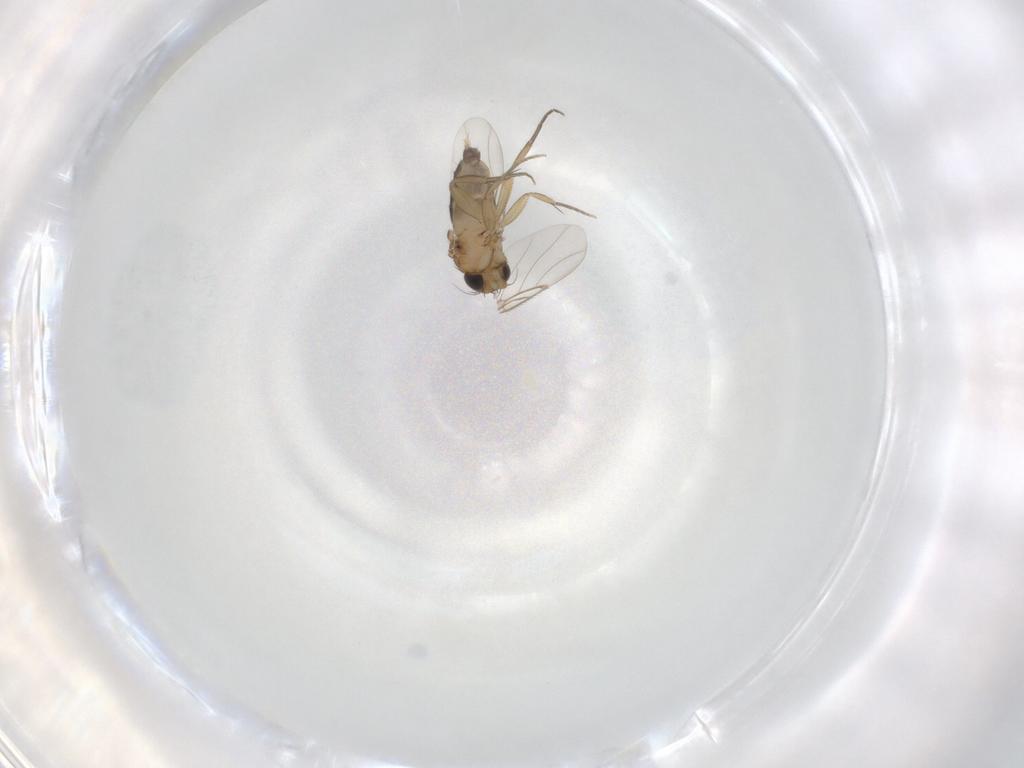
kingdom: Animalia
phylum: Arthropoda
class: Insecta
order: Diptera
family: Phoridae
